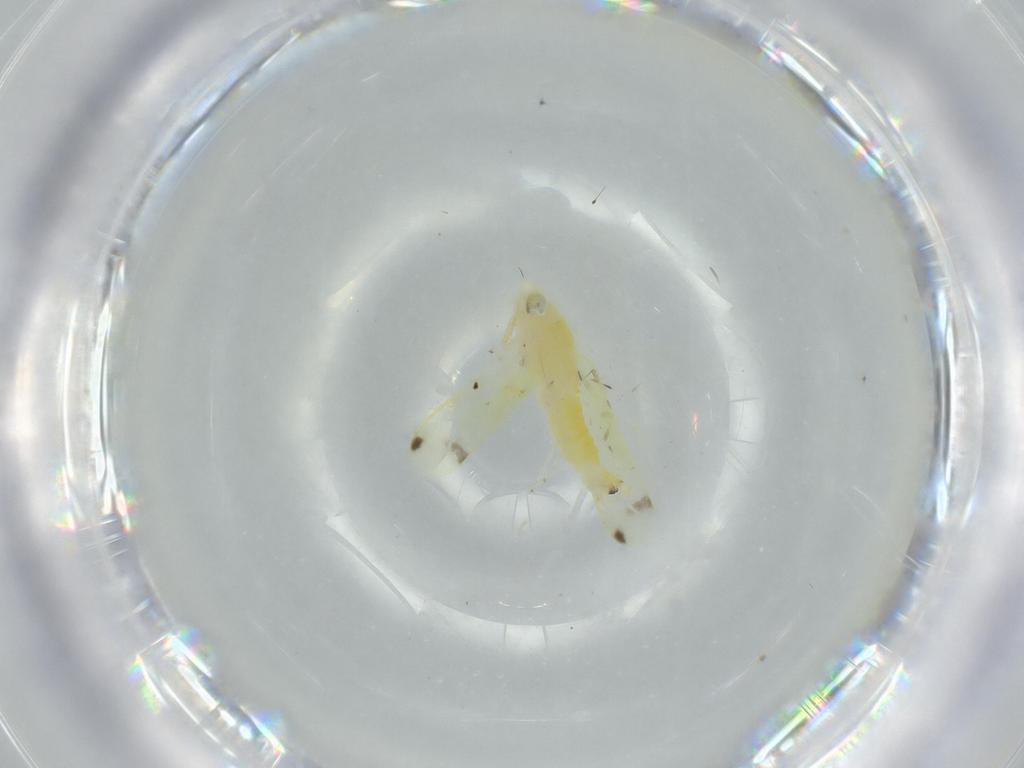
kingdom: Animalia
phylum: Arthropoda
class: Insecta
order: Hemiptera
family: Cicadellidae
